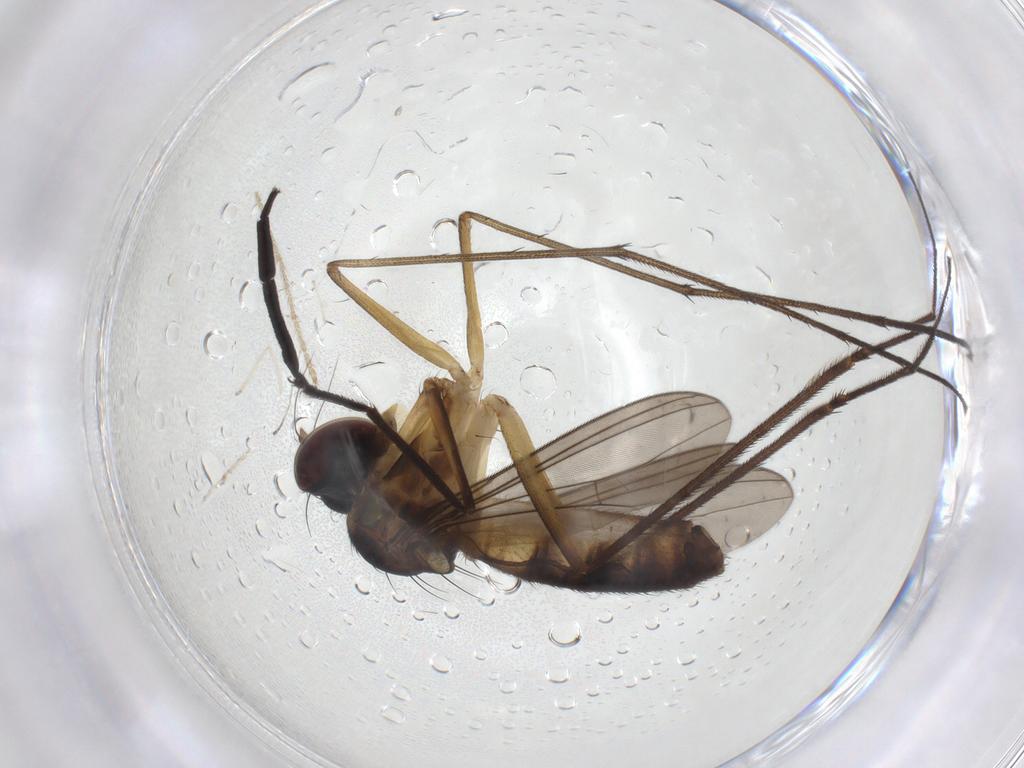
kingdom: Animalia
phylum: Arthropoda
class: Insecta
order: Diptera
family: Dolichopodidae
